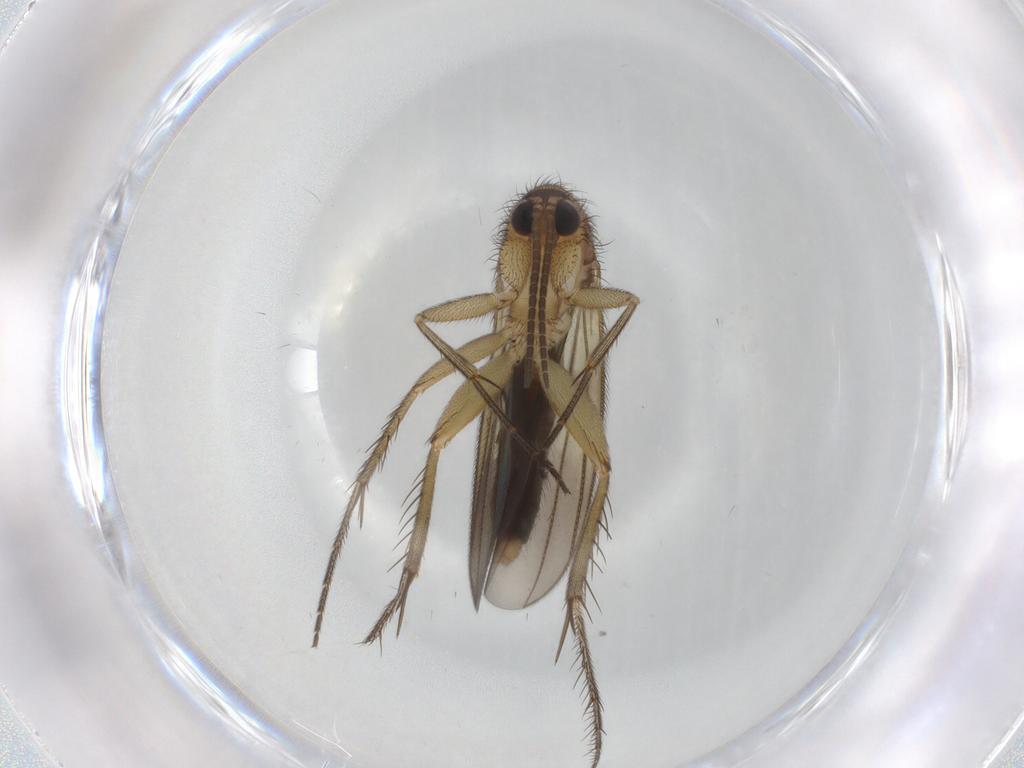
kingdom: Animalia
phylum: Arthropoda
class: Insecta
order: Diptera
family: Mycetophilidae
